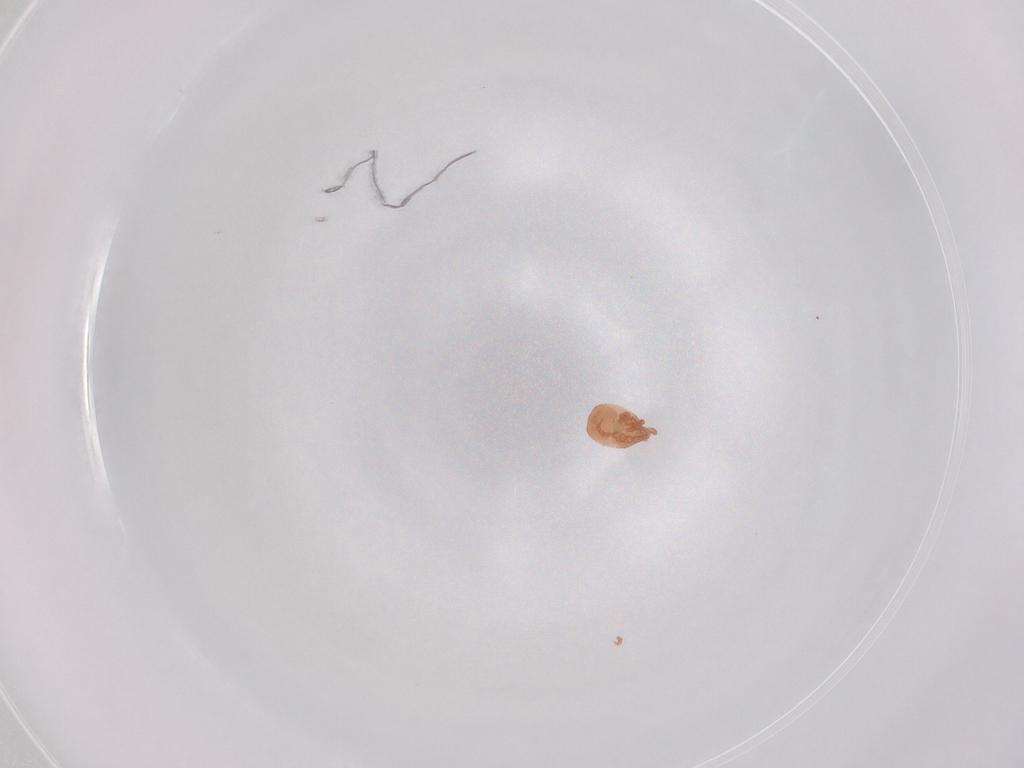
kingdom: Animalia
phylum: Arthropoda
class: Arachnida
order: Mesostigmata
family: Zerconidae
